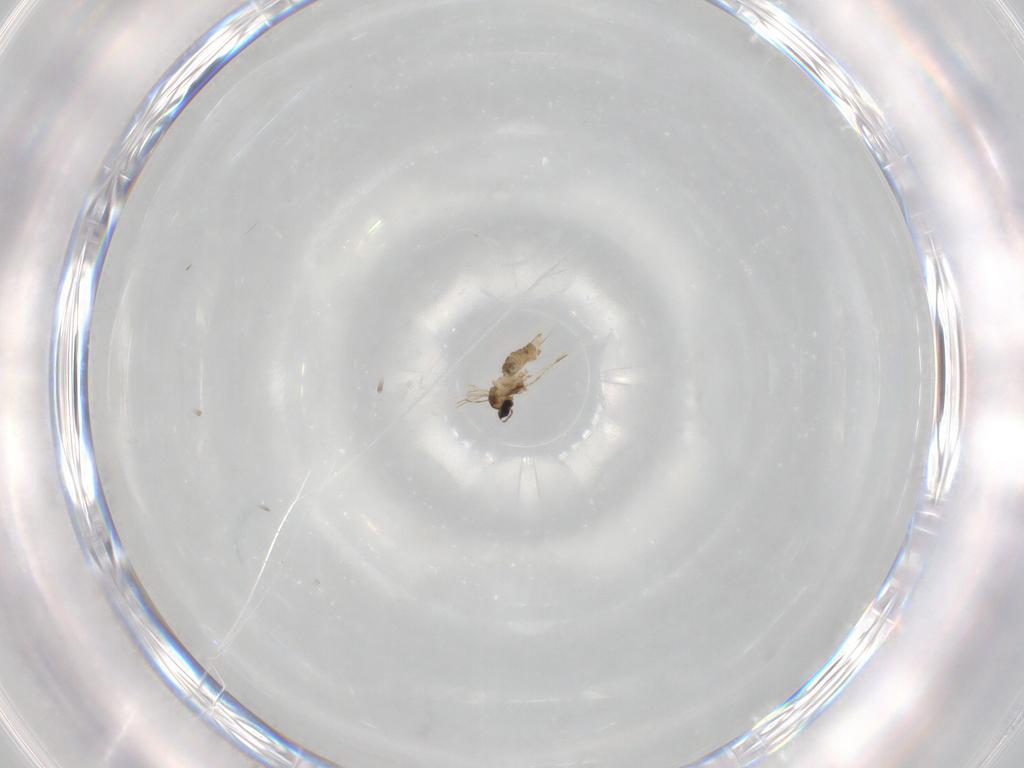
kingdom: Animalia
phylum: Arthropoda
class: Insecta
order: Diptera
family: Cecidomyiidae
